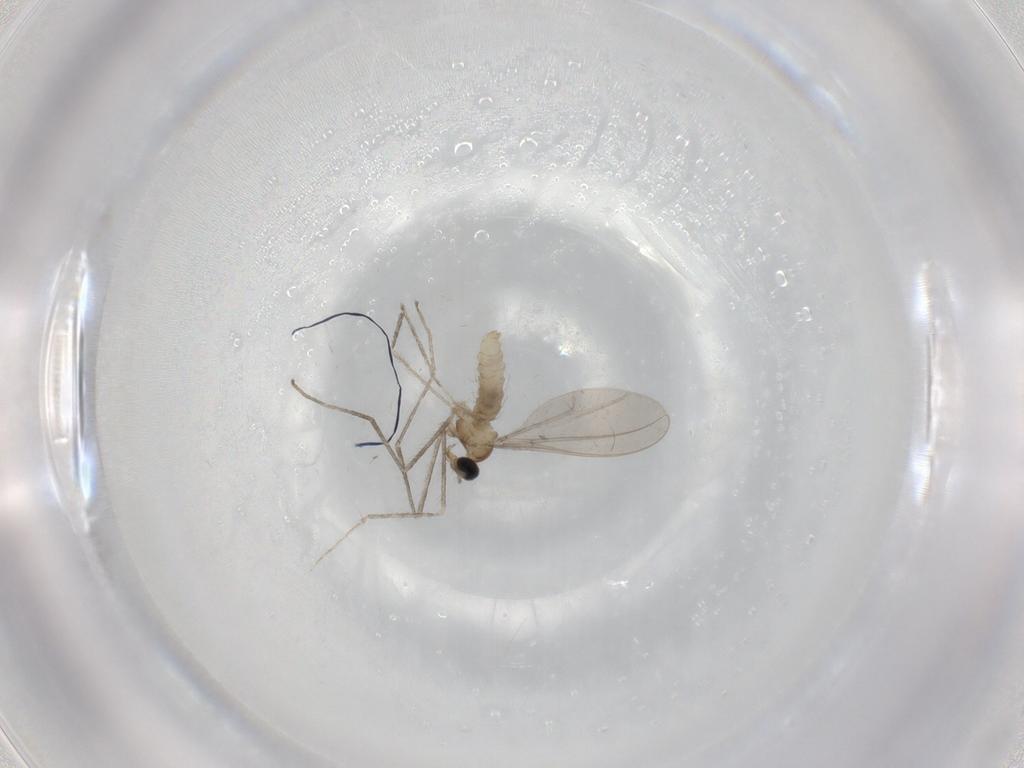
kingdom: Animalia
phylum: Arthropoda
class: Insecta
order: Diptera
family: Cecidomyiidae
